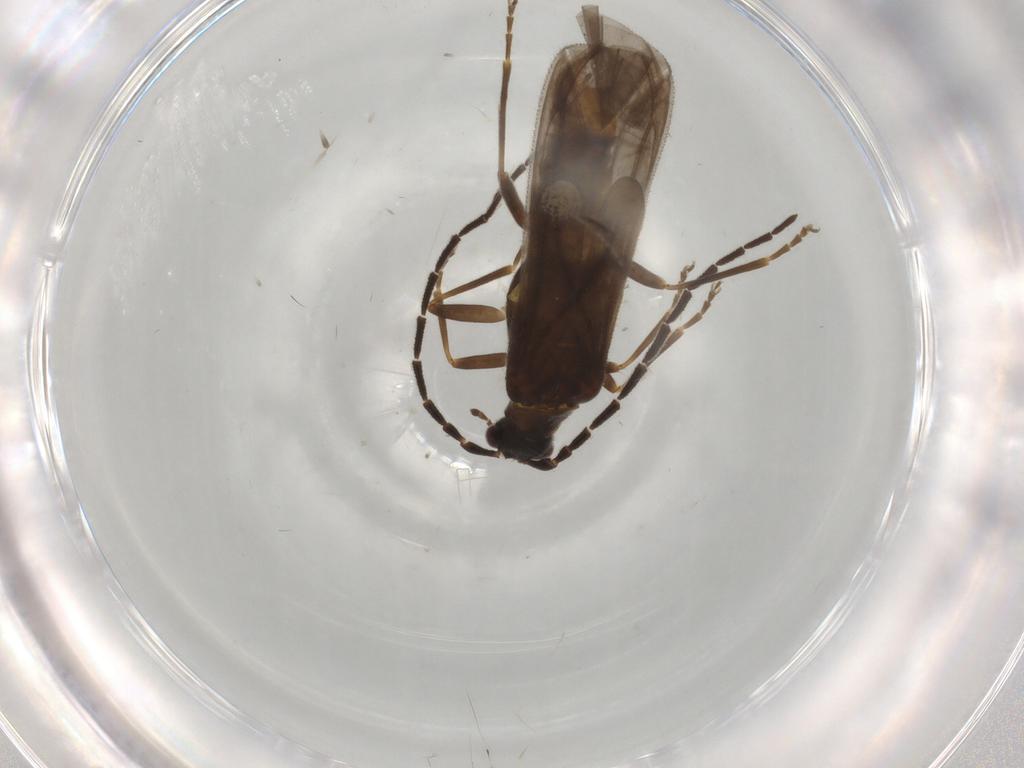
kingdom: Animalia
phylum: Arthropoda
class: Insecta
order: Coleoptera
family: Cantharidae
